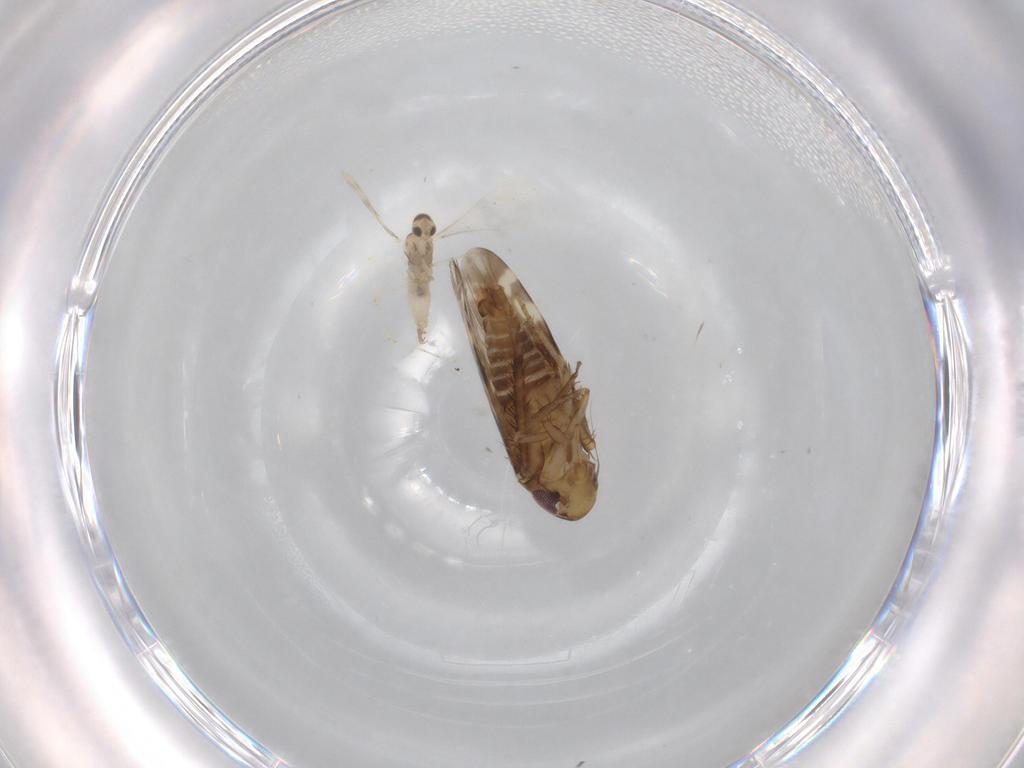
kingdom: Animalia
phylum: Arthropoda
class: Insecta
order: Hemiptera
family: Cicadellidae
